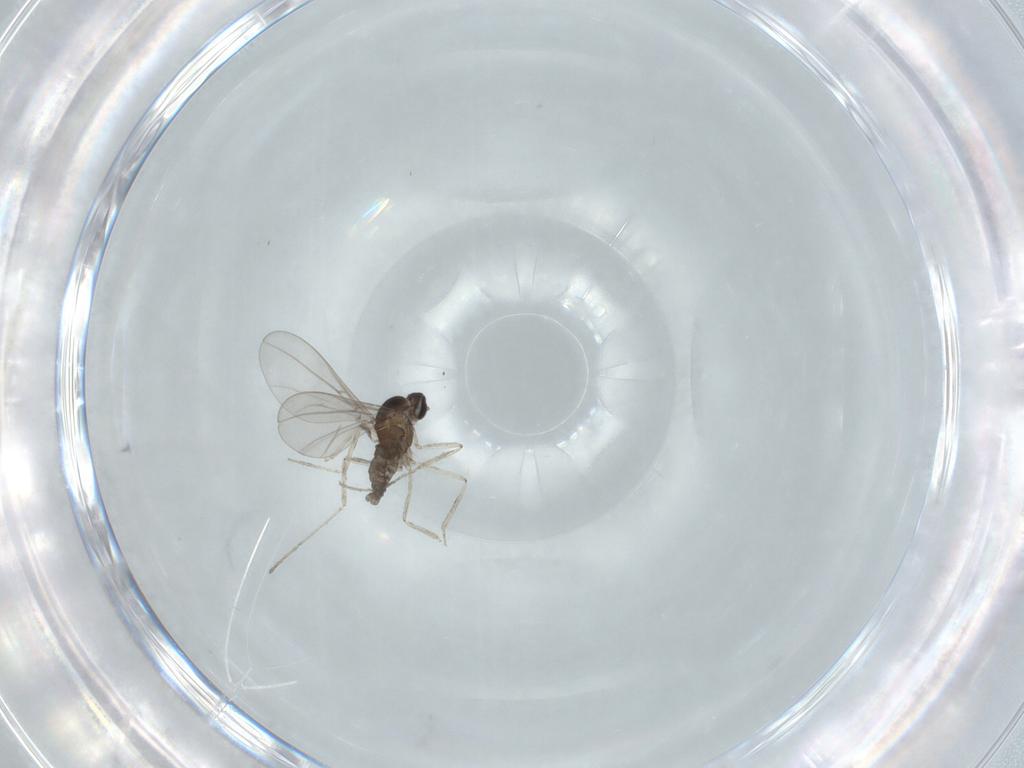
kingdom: Animalia
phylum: Arthropoda
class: Insecta
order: Diptera
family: Cecidomyiidae
